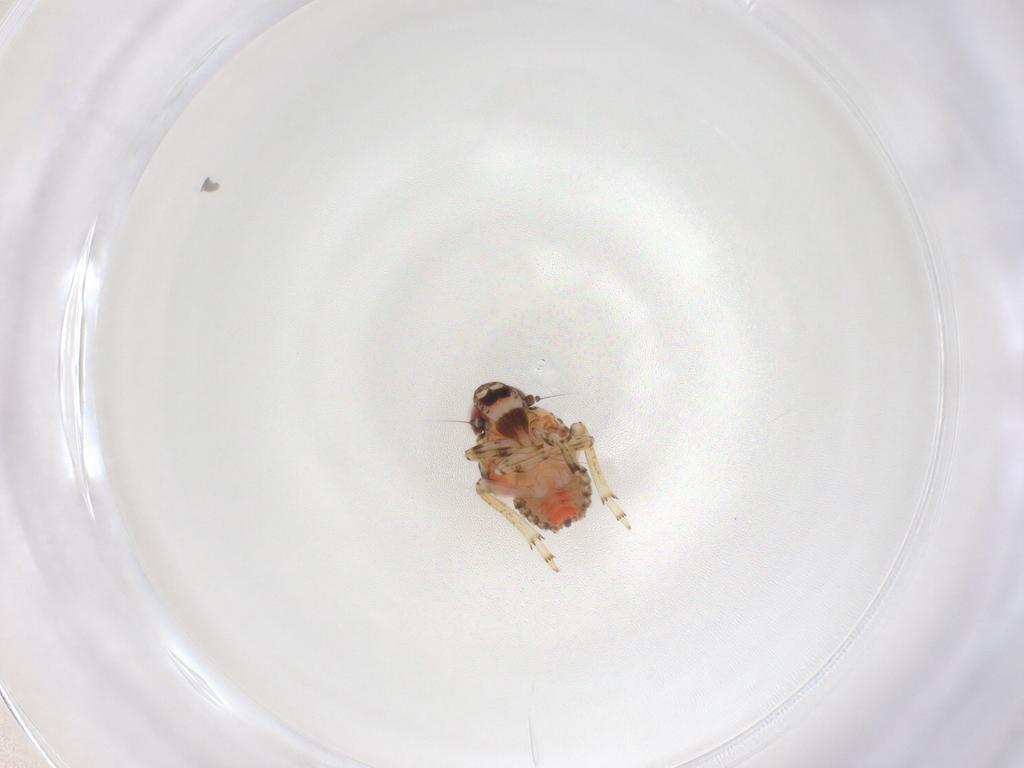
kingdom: Animalia
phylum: Arthropoda
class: Insecta
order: Hemiptera
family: Issidae
